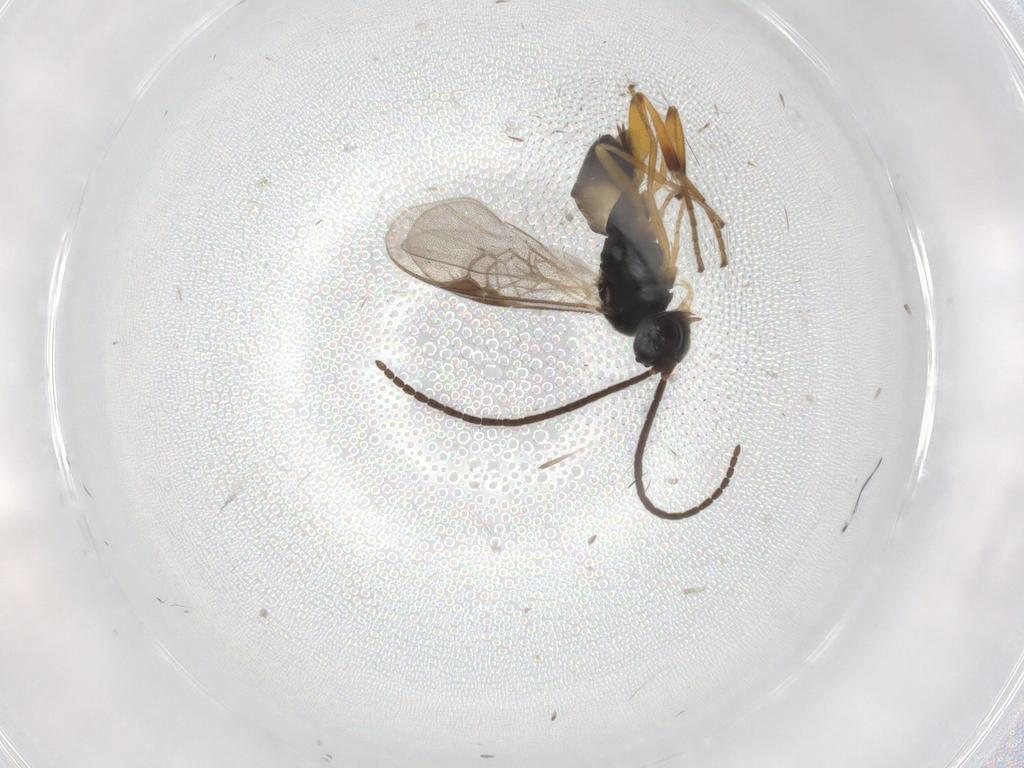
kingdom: Animalia
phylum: Arthropoda
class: Insecta
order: Hymenoptera
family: Braconidae
